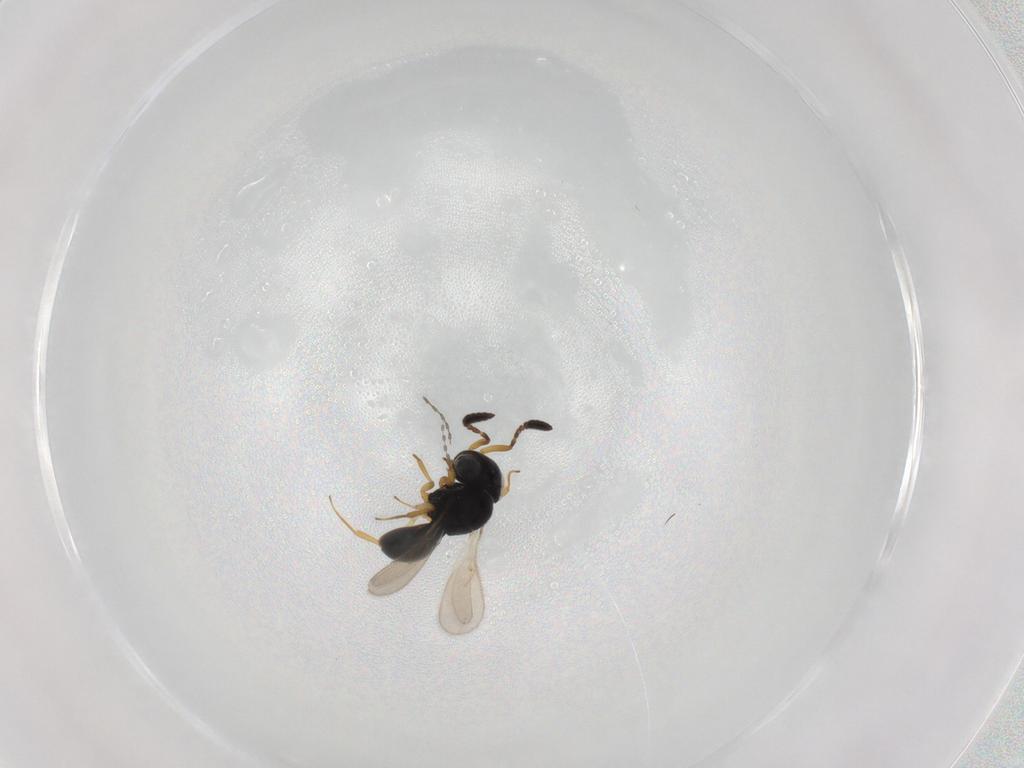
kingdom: Animalia
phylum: Arthropoda
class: Insecta
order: Hymenoptera
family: Scelionidae
